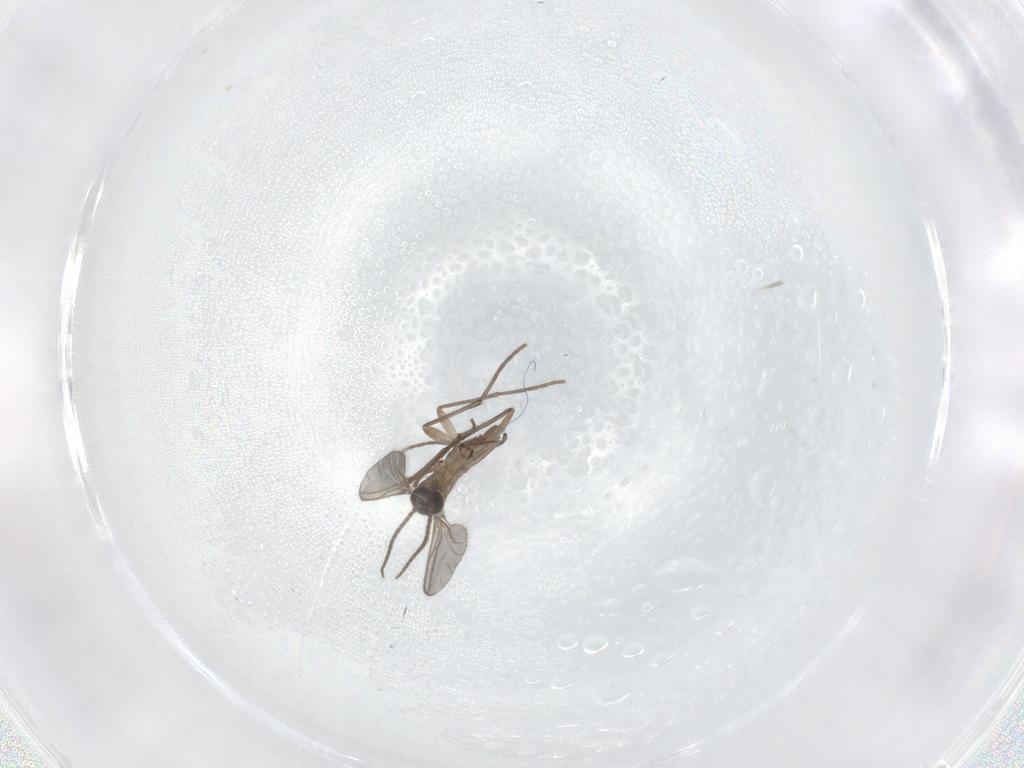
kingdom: Animalia
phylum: Arthropoda
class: Insecta
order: Diptera
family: Sciaridae
